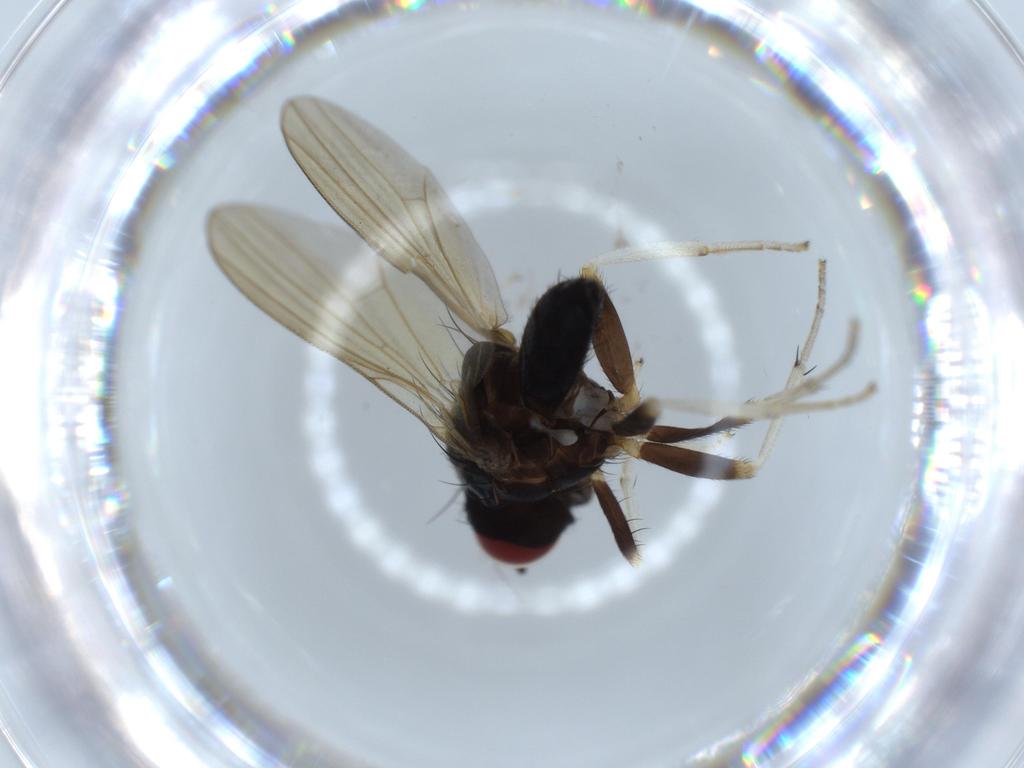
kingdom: Animalia
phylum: Arthropoda
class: Insecta
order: Diptera
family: Lauxaniidae
